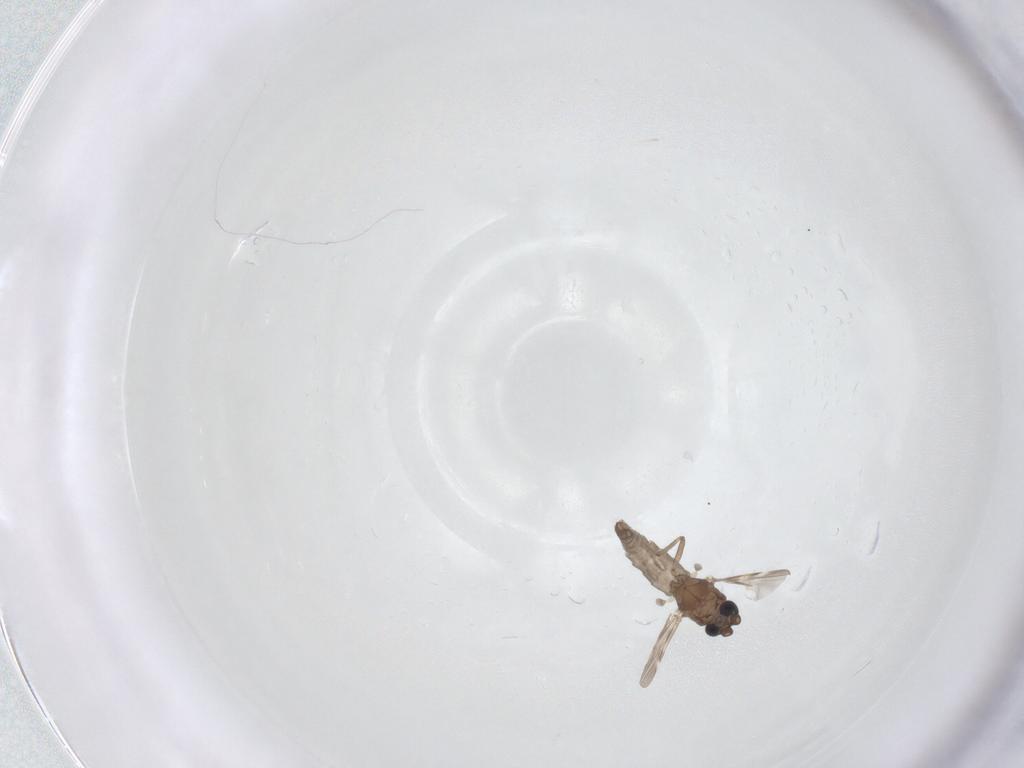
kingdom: Animalia
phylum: Arthropoda
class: Insecta
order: Diptera
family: Ceratopogonidae
